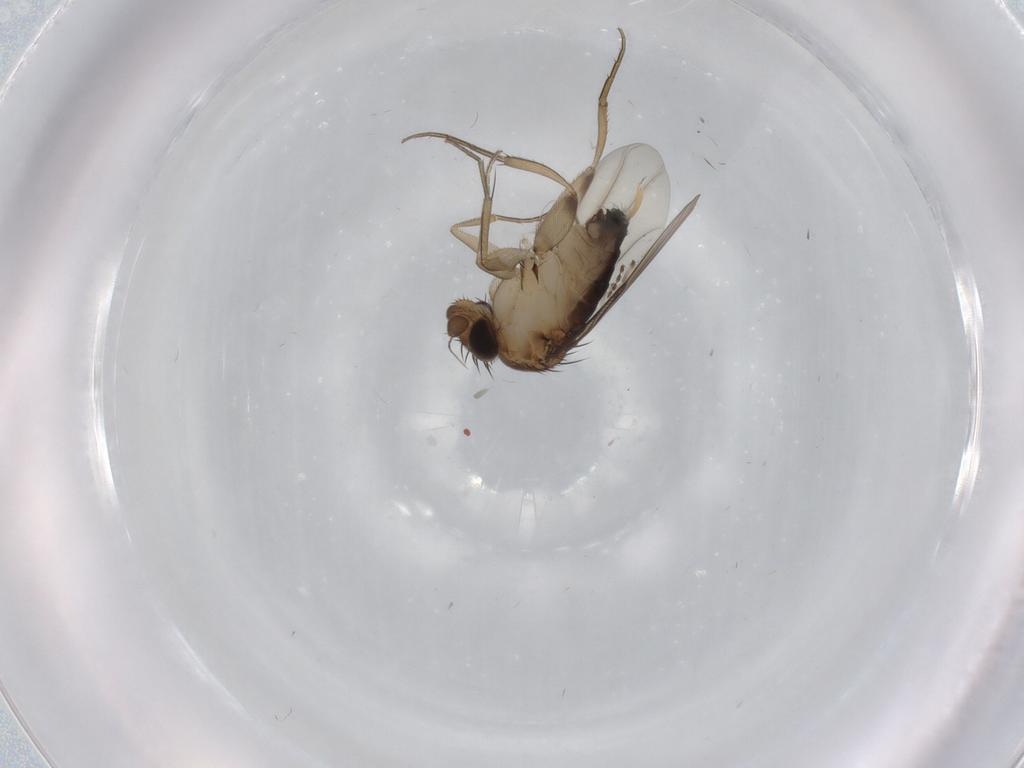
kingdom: Animalia
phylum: Arthropoda
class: Insecta
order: Diptera
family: Phoridae
